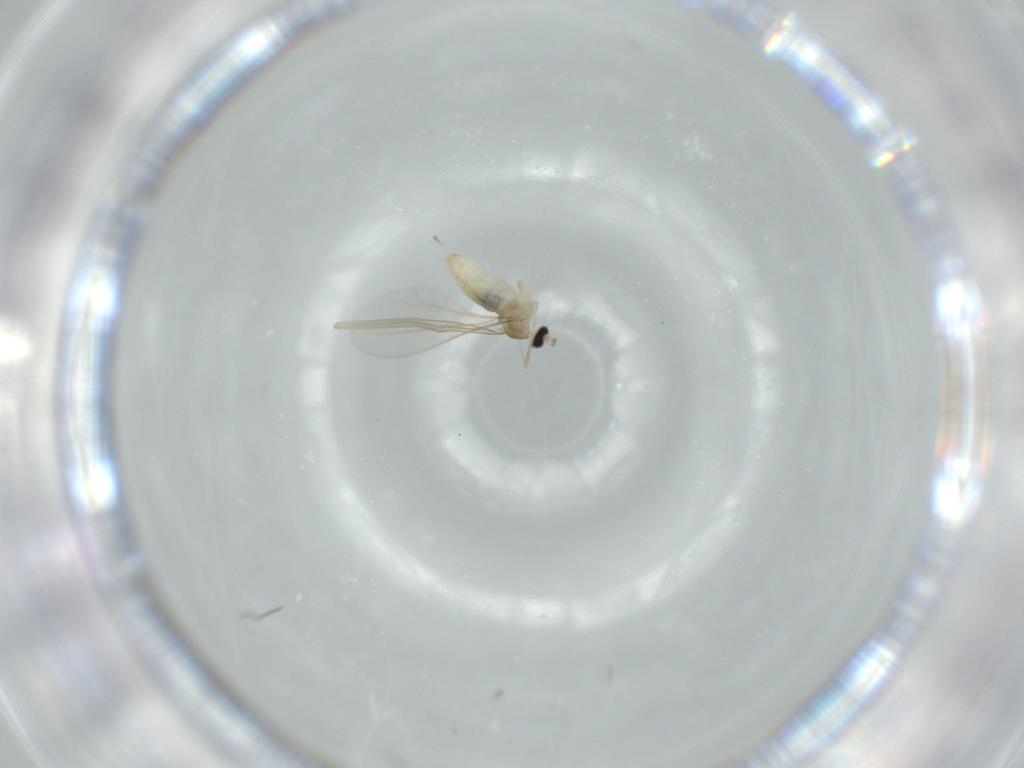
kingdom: Animalia
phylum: Arthropoda
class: Insecta
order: Diptera
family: Cecidomyiidae
